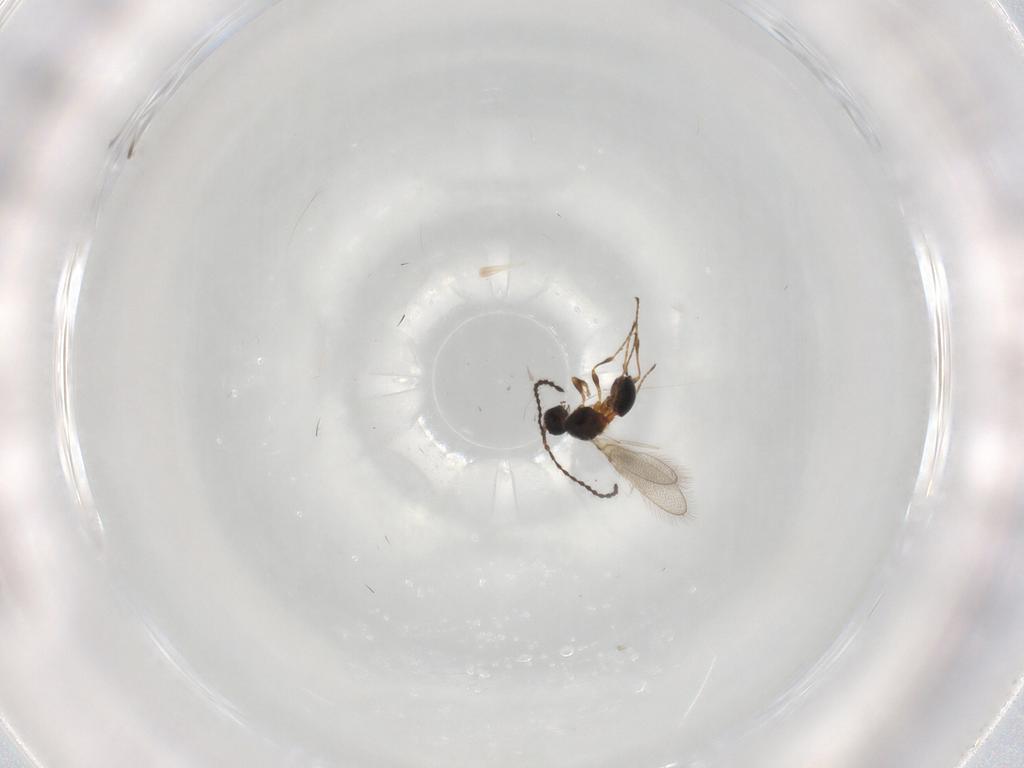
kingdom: Animalia
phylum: Arthropoda
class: Insecta
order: Hymenoptera
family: Diapriidae
